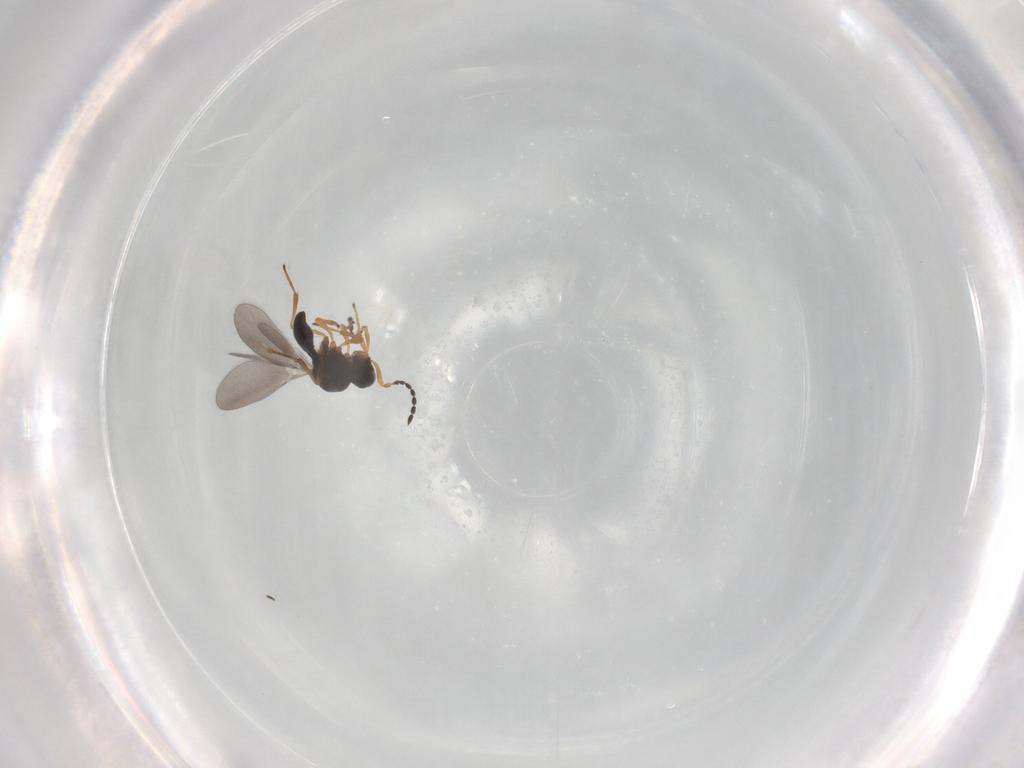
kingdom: Animalia
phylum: Arthropoda
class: Insecta
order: Hymenoptera
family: Platygastridae
